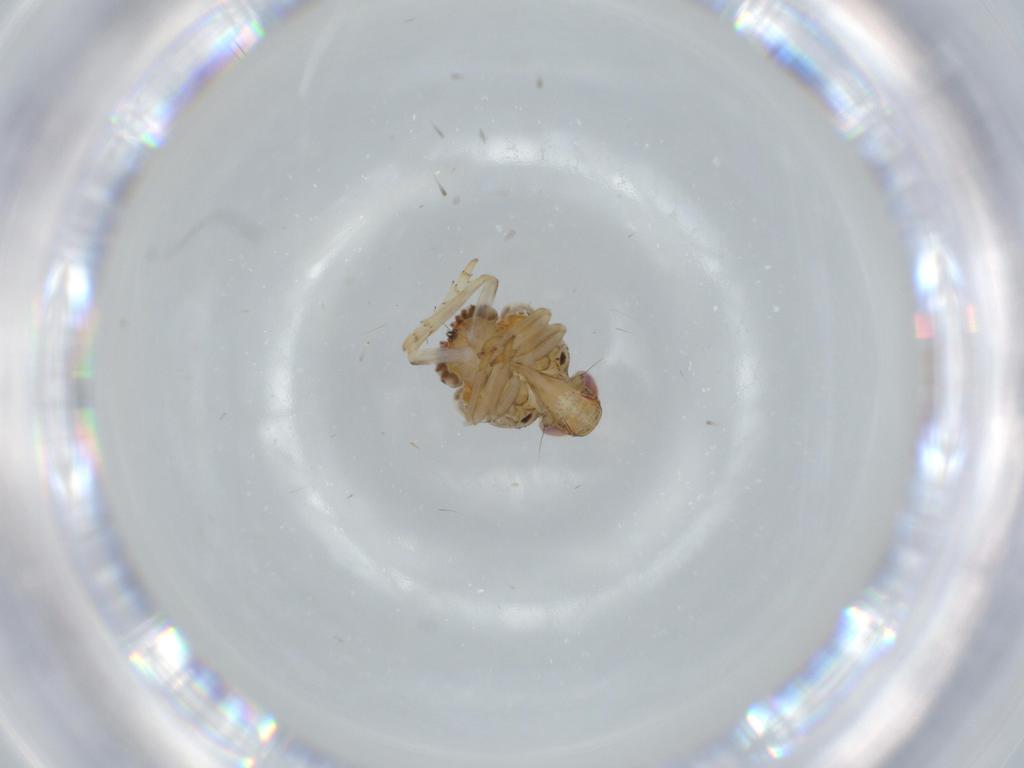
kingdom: Animalia
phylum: Arthropoda
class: Insecta
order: Hemiptera
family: Issidae
